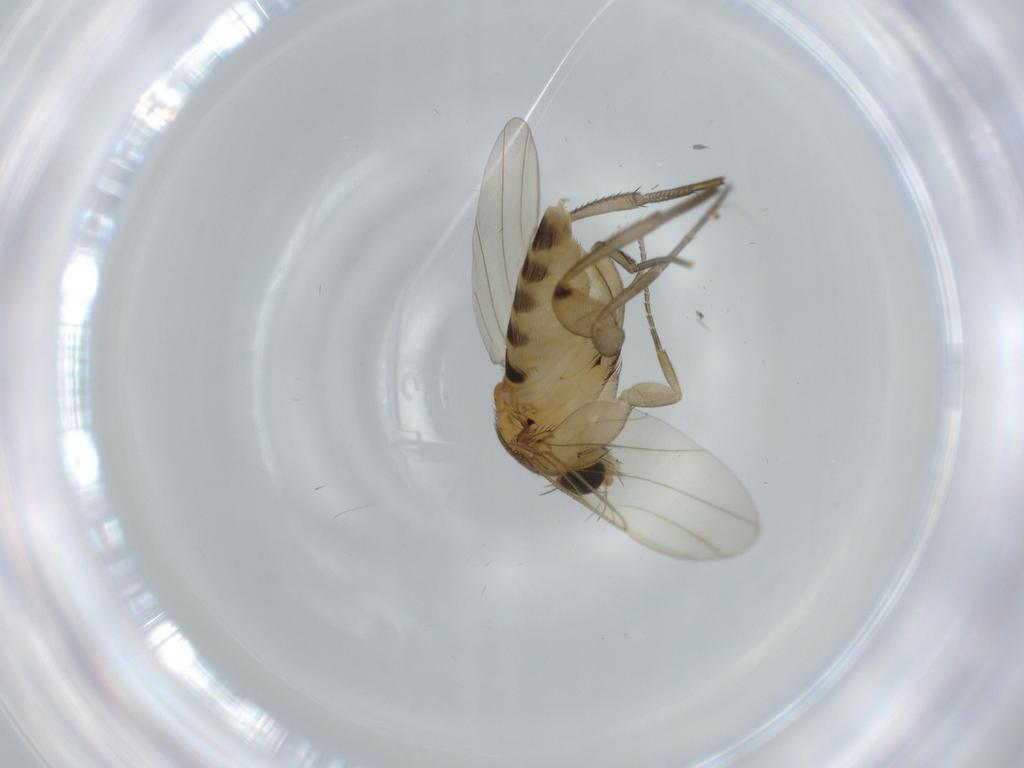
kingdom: Animalia
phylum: Arthropoda
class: Insecta
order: Diptera
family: Phoridae
